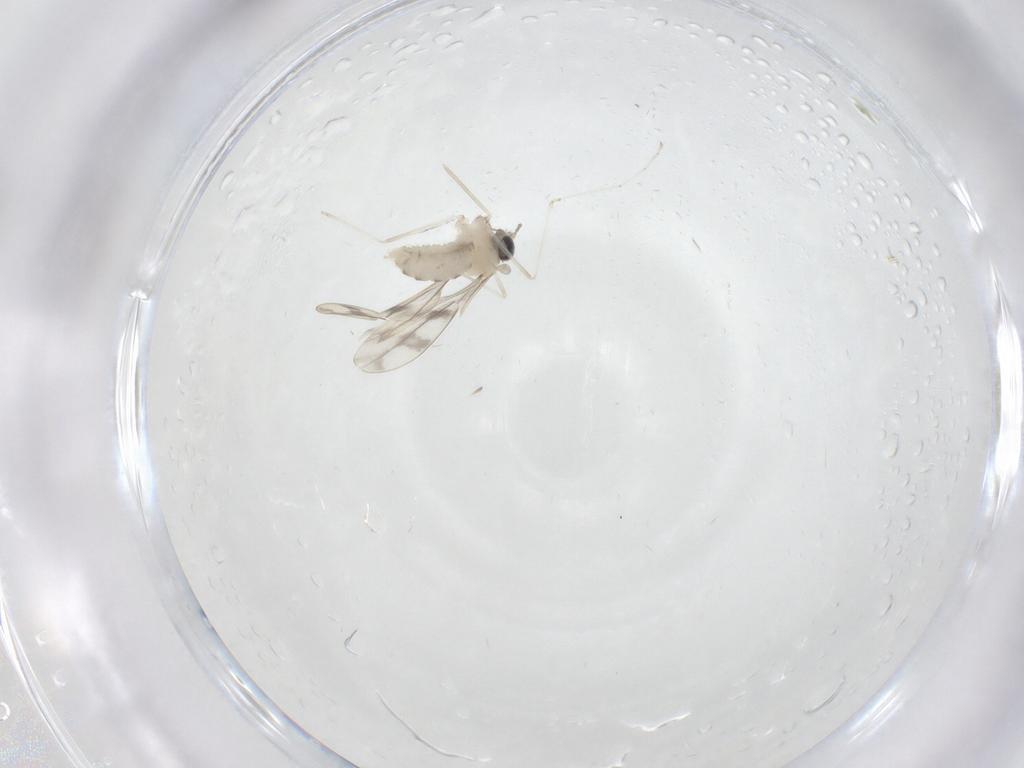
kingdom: Animalia
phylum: Arthropoda
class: Insecta
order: Diptera
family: Cecidomyiidae
